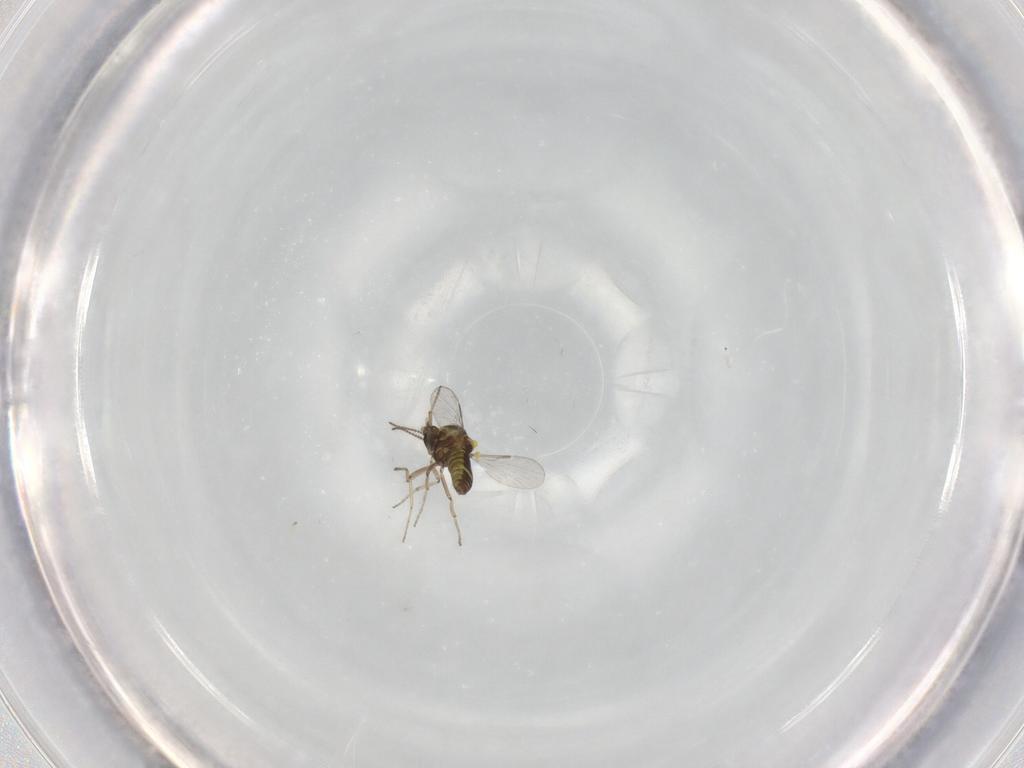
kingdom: Animalia
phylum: Arthropoda
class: Insecta
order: Diptera
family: Ceratopogonidae
